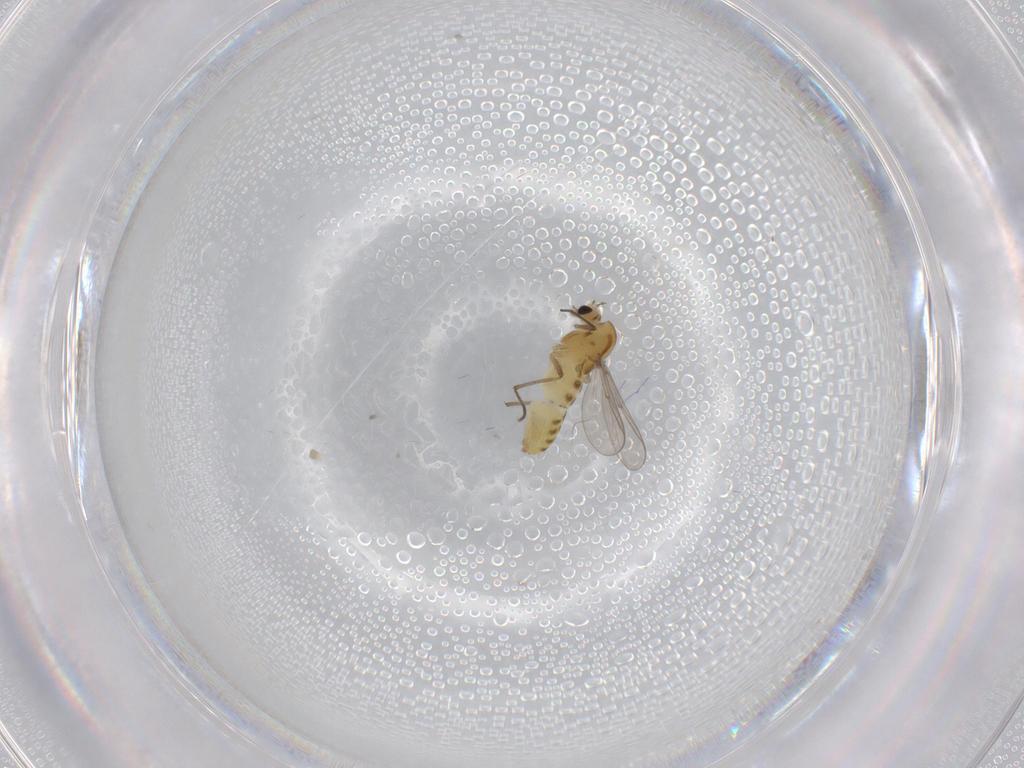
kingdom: Animalia
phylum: Arthropoda
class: Insecta
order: Diptera
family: Chironomidae
